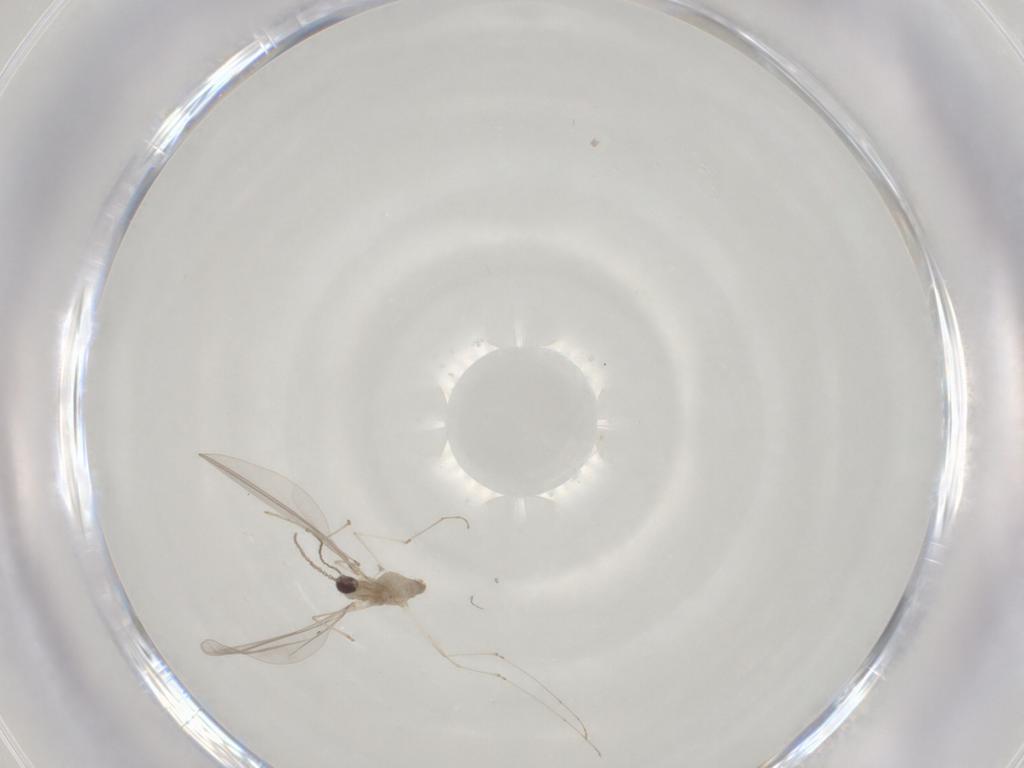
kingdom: Animalia
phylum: Arthropoda
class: Insecta
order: Diptera
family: Cecidomyiidae
